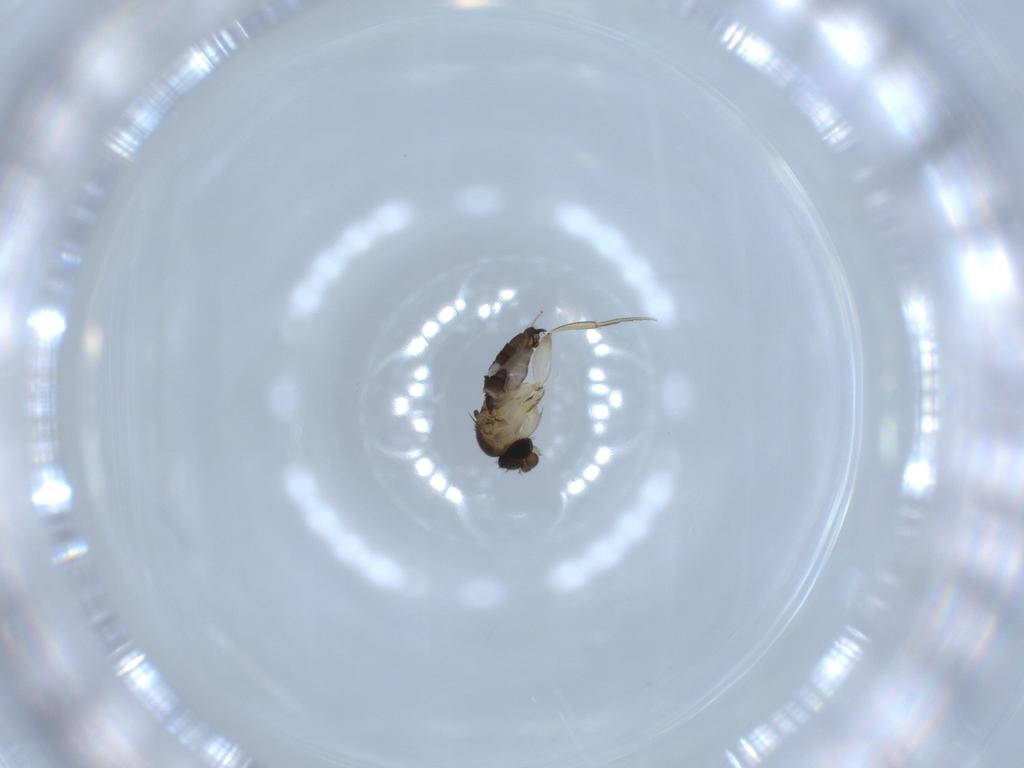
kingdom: Animalia
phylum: Arthropoda
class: Insecta
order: Diptera
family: Phoridae
